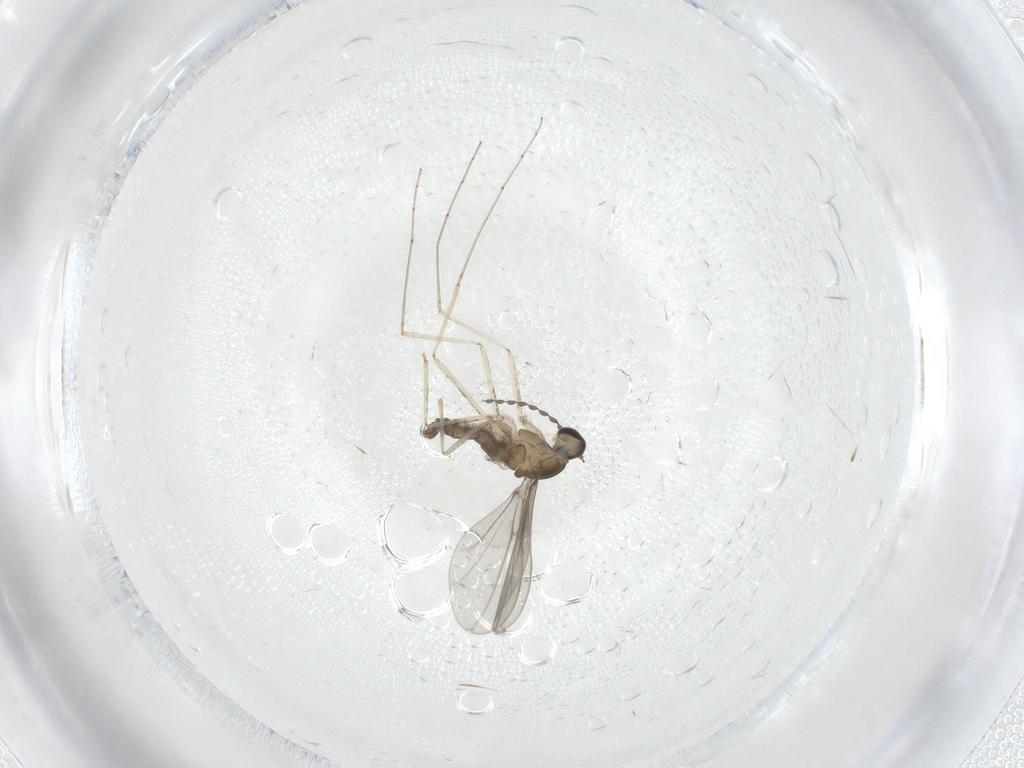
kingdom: Animalia
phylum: Arthropoda
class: Insecta
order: Diptera
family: Cecidomyiidae
